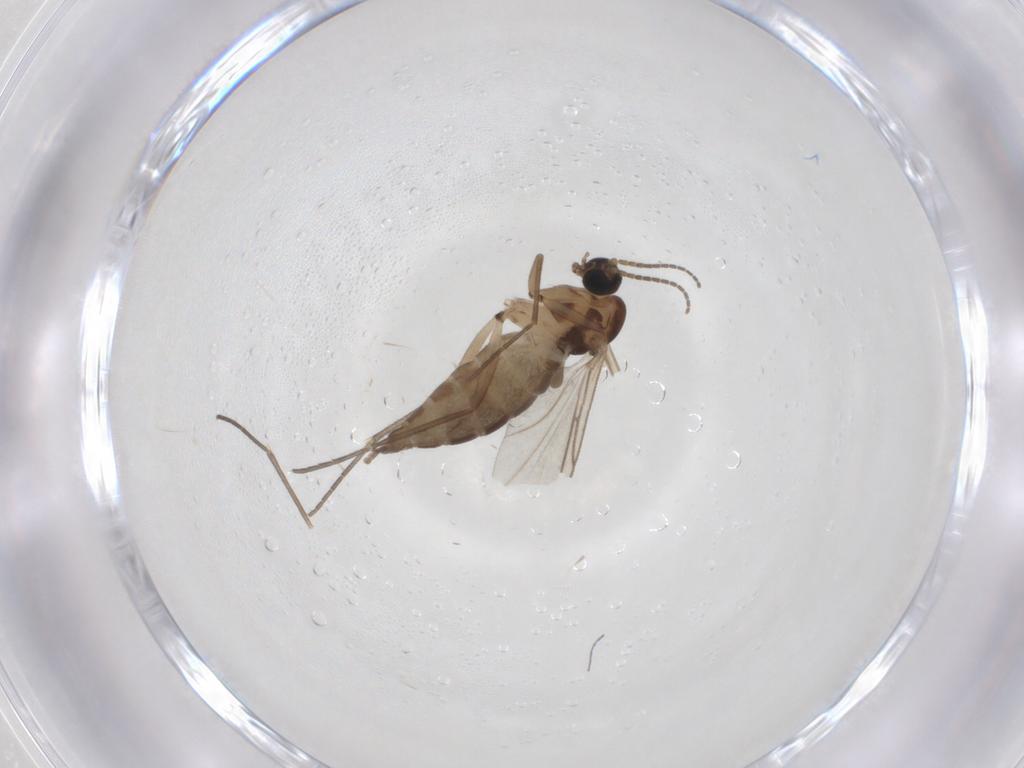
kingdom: Animalia
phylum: Arthropoda
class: Insecta
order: Diptera
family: Sciaridae
